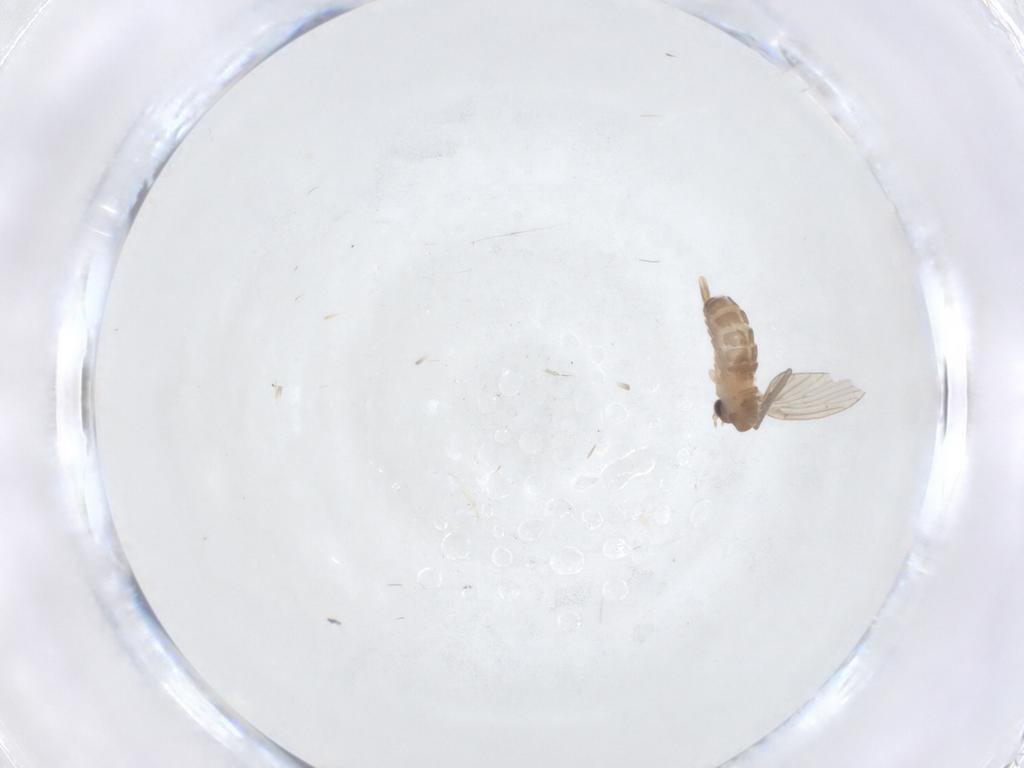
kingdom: Animalia
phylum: Arthropoda
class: Insecta
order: Diptera
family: Psychodidae
